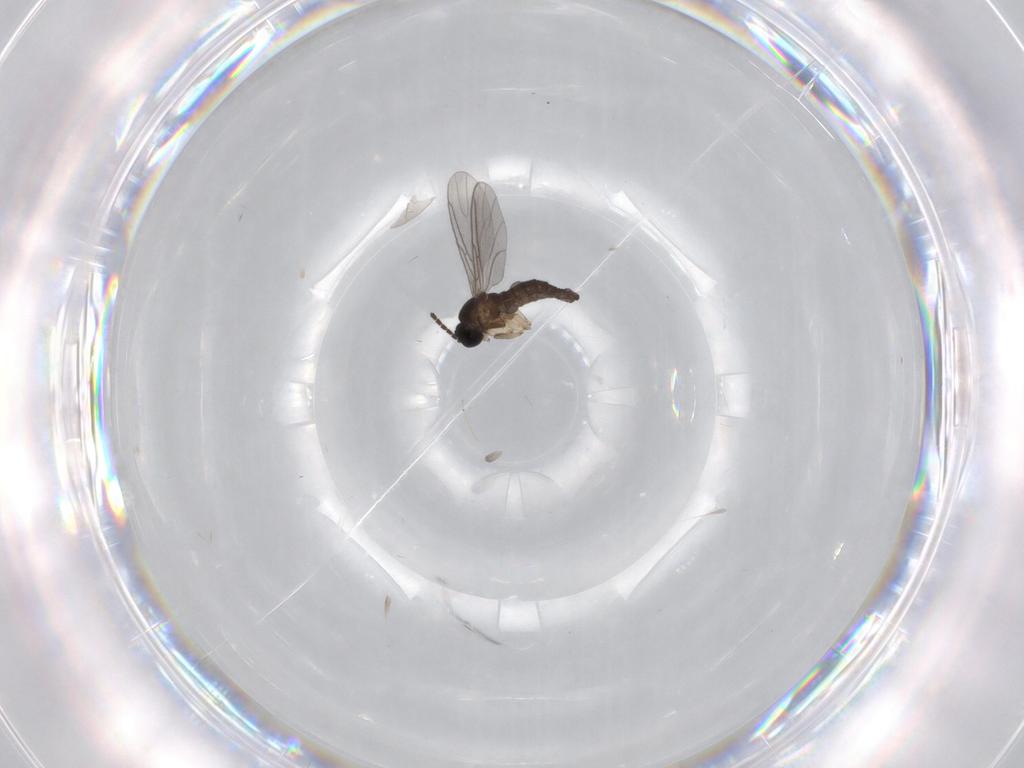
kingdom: Animalia
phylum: Arthropoda
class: Insecta
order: Diptera
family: Sciaridae
